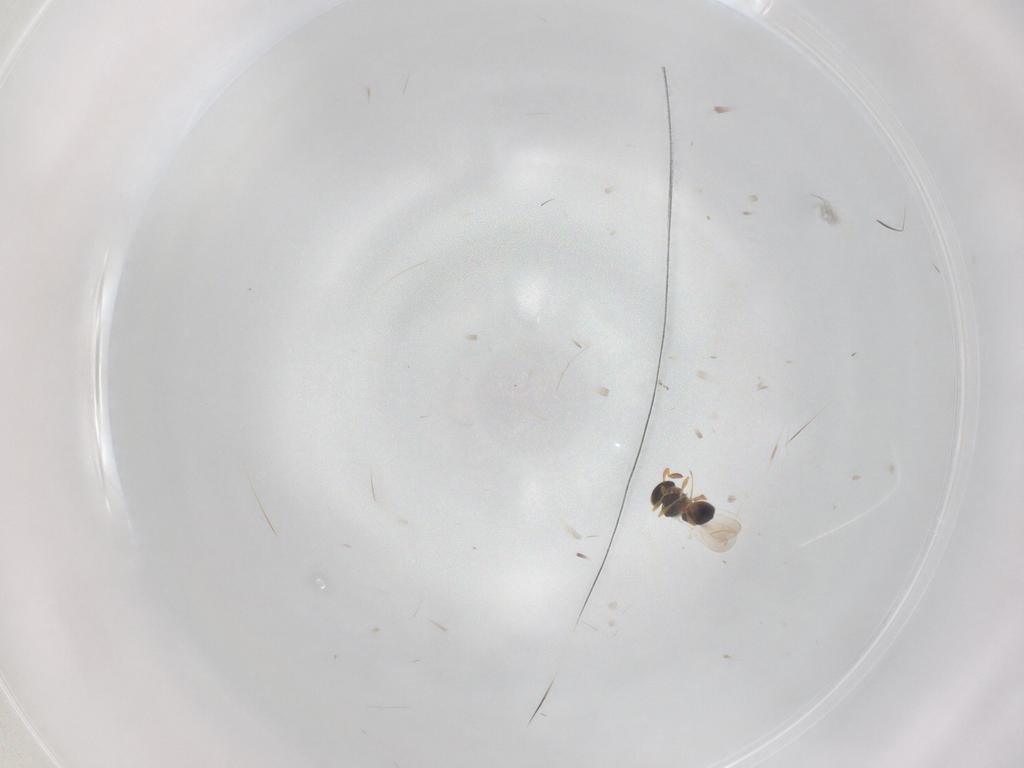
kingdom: Animalia
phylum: Arthropoda
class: Insecta
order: Hymenoptera
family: Platygastridae
